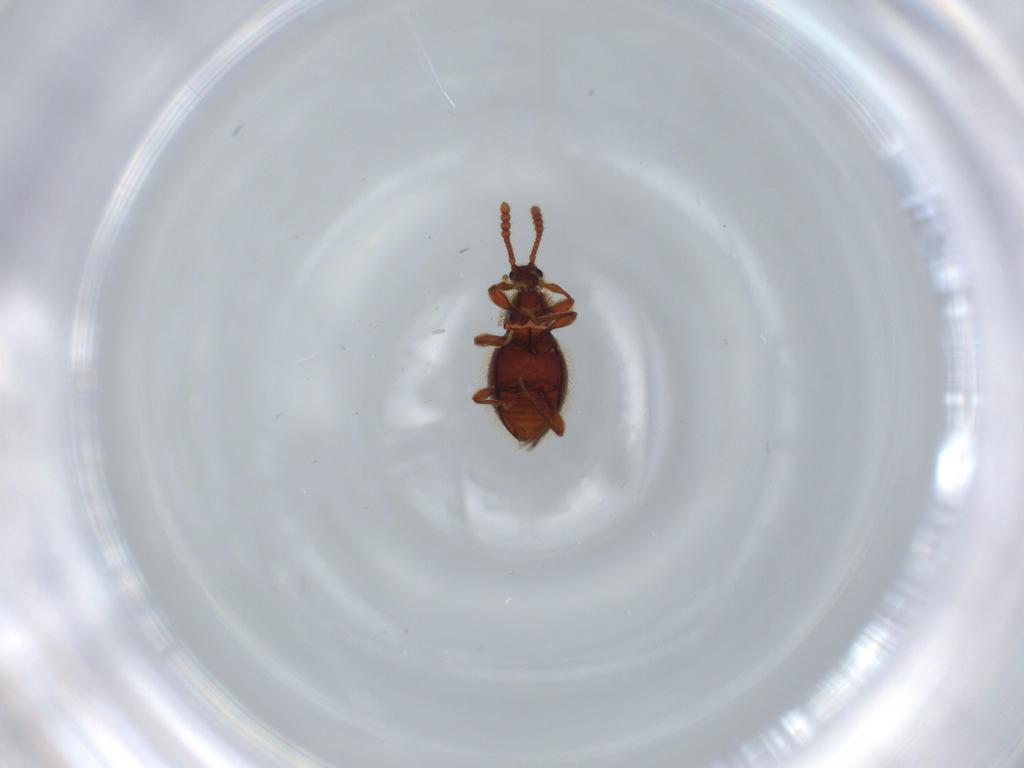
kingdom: Animalia
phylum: Arthropoda
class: Insecta
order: Coleoptera
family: Staphylinidae
